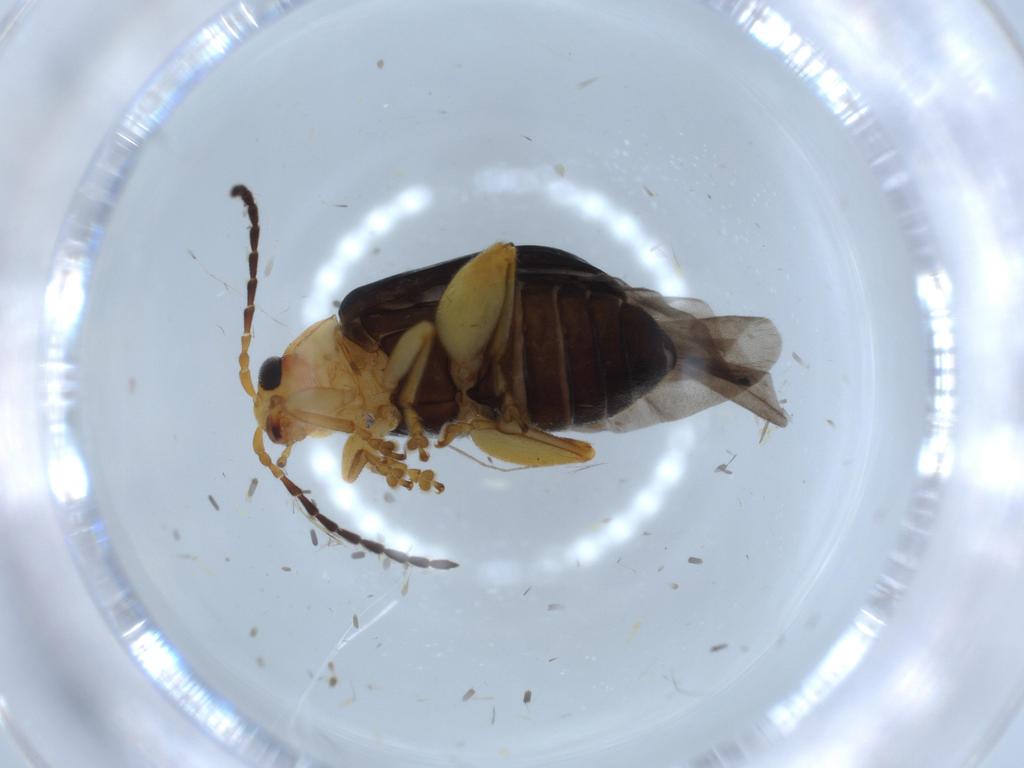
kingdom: Animalia
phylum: Arthropoda
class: Insecta
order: Coleoptera
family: Chrysomelidae
